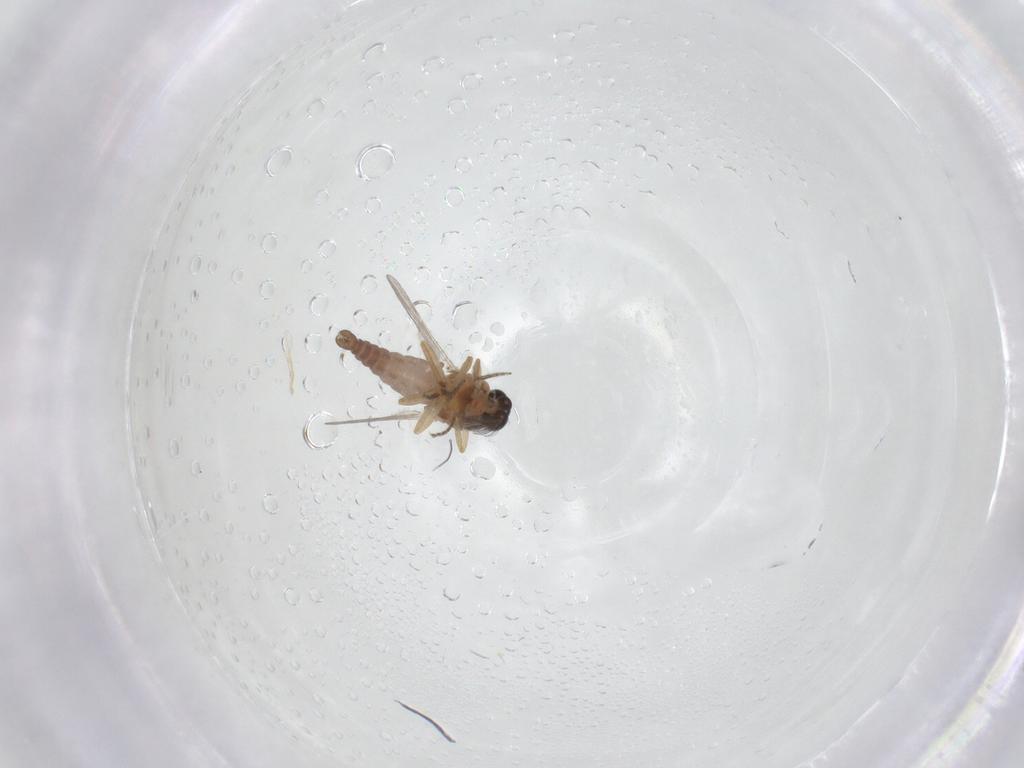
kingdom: Animalia
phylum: Arthropoda
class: Insecta
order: Diptera
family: Ceratopogonidae
